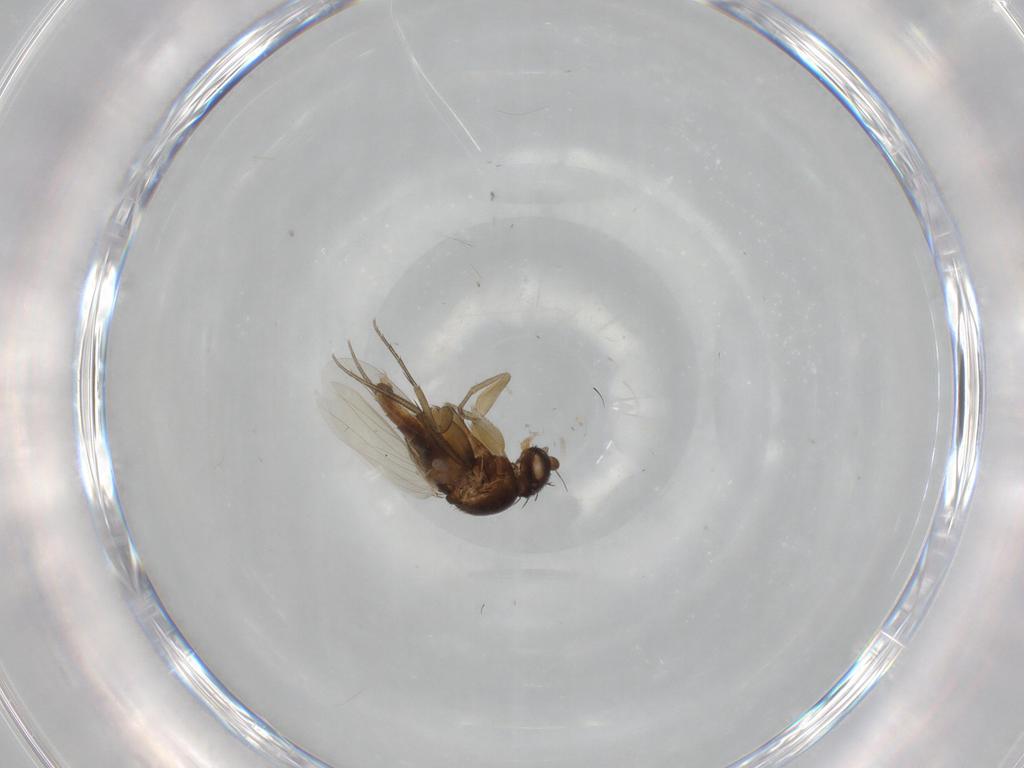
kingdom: Animalia
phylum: Arthropoda
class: Insecta
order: Diptera
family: Phoridae
